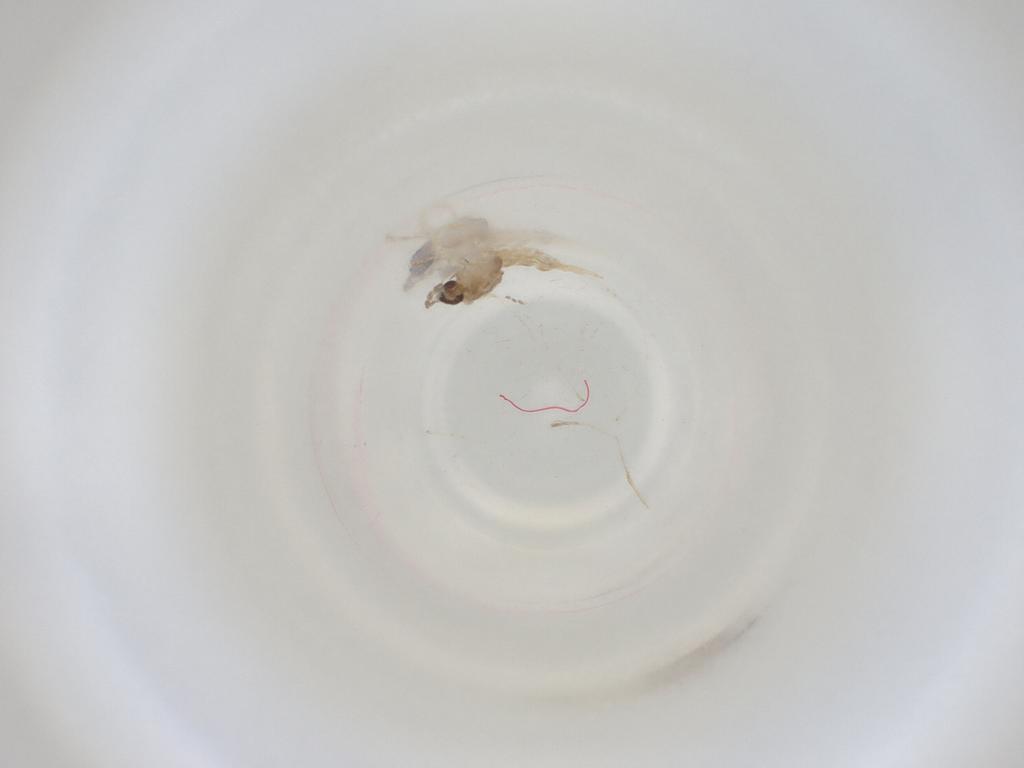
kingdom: Animalia
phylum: Arthropoda
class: Insecta
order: Diptera
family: Cecidomyiidae
